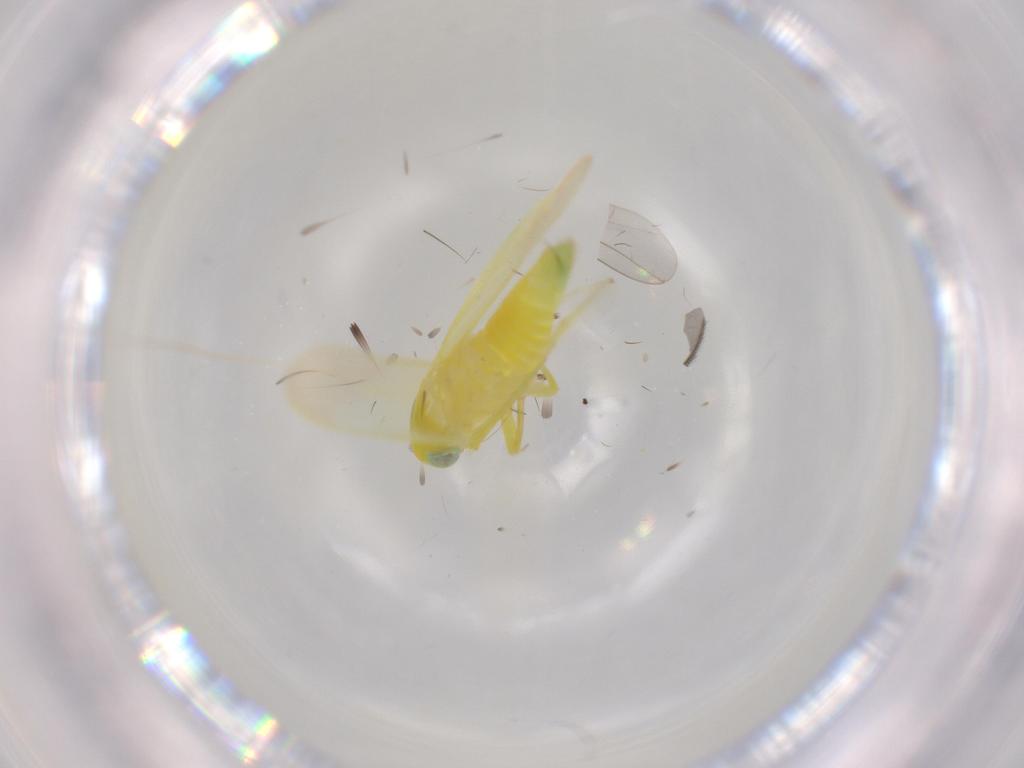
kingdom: Animalia
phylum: Arthropoda
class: Insecta
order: Hemiptera
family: Cicadellidae
